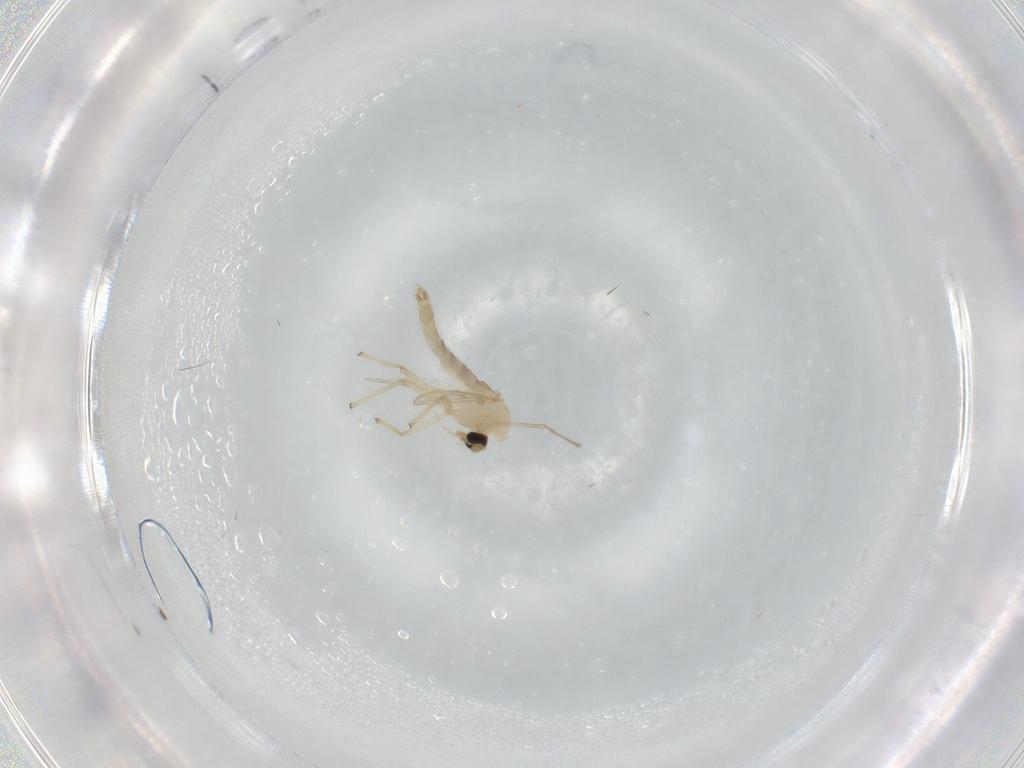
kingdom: Animalia
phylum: Arthropoda
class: Insecta
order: Diptera
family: Chironomidae
